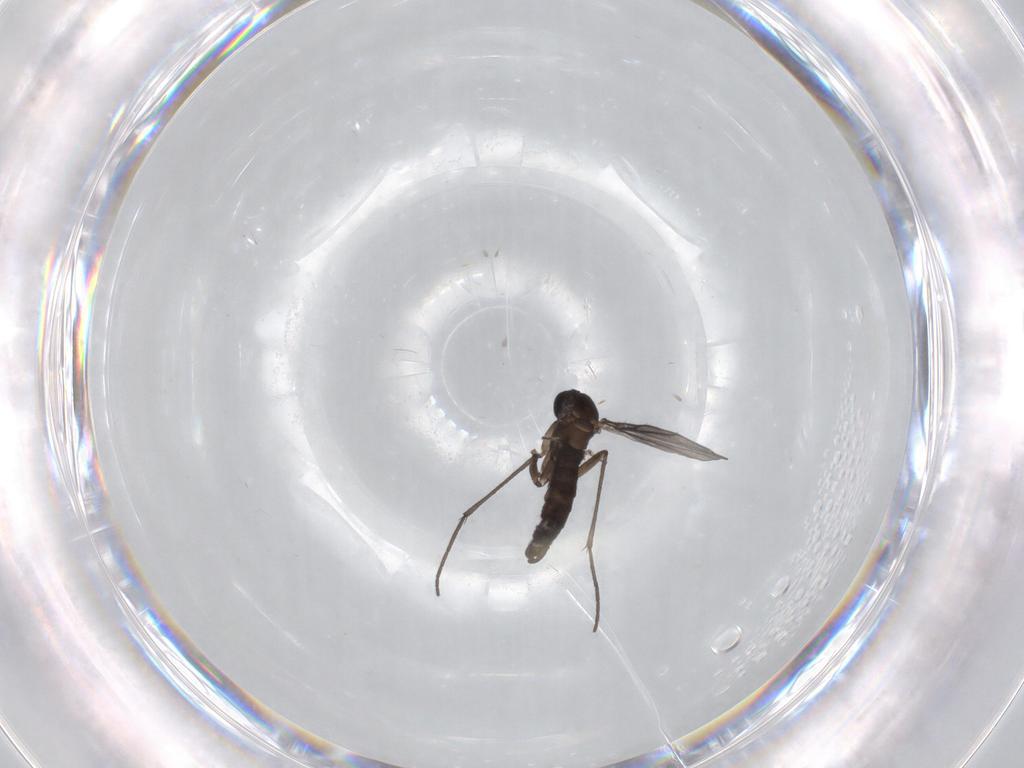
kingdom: Animalia
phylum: Arthropoda
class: Insecta
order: Diptera
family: Sciaridae
